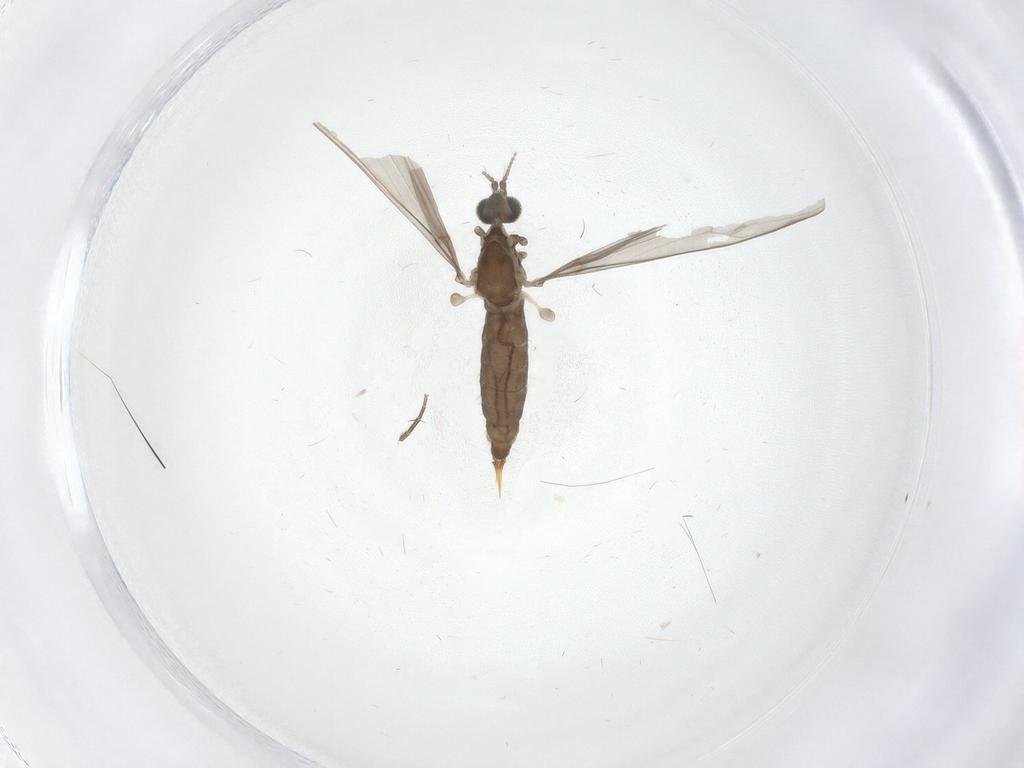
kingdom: Animalia
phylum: Arthropoda
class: Insecta
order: Diptera
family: Limoniidae
